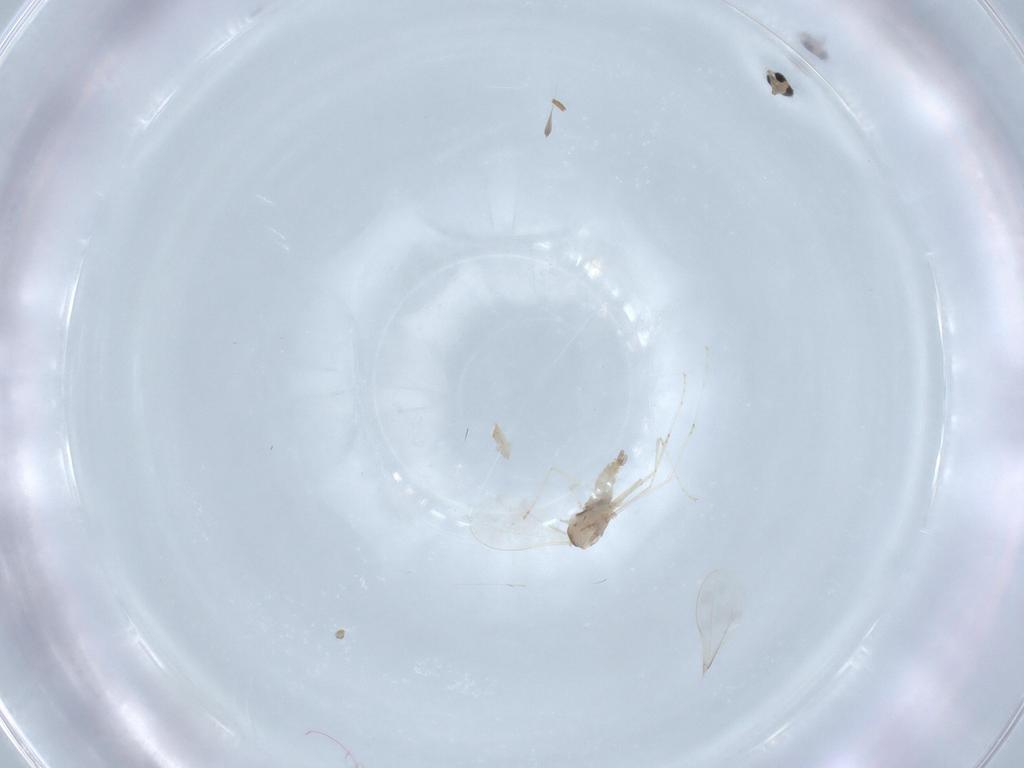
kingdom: Animalia
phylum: Arthropoda
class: Insecta
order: Diptera
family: Cecidomyiidae
